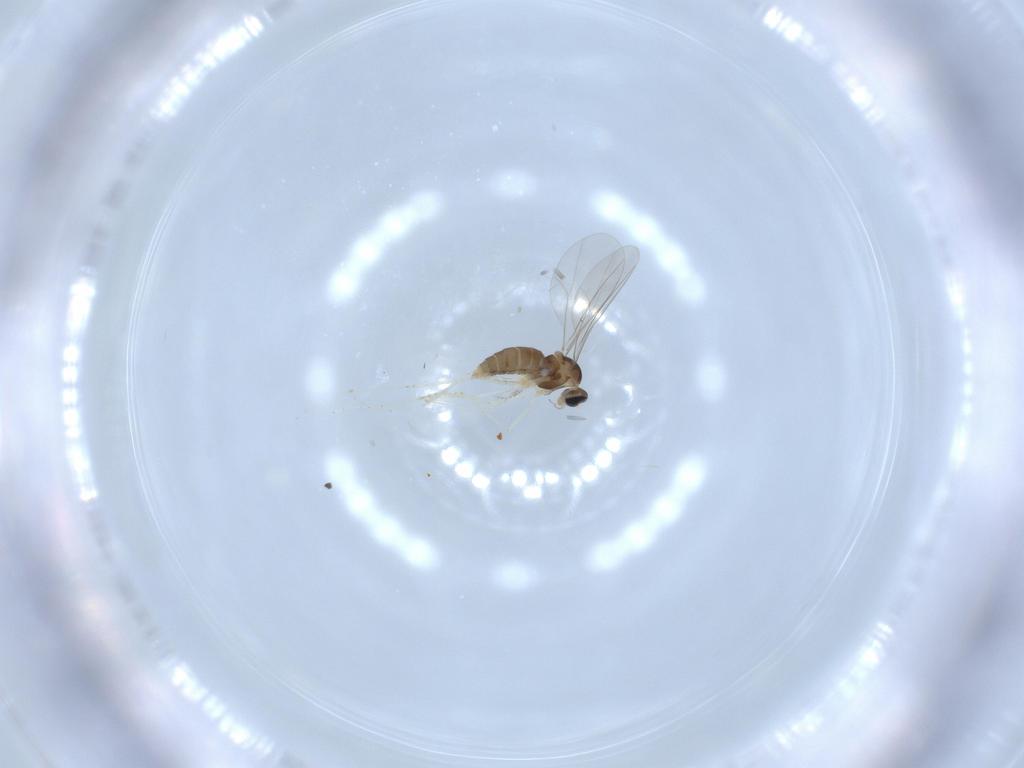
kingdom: Animalia
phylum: Arthropoda
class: Insecta
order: Diptera
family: Cecidomyiidae
